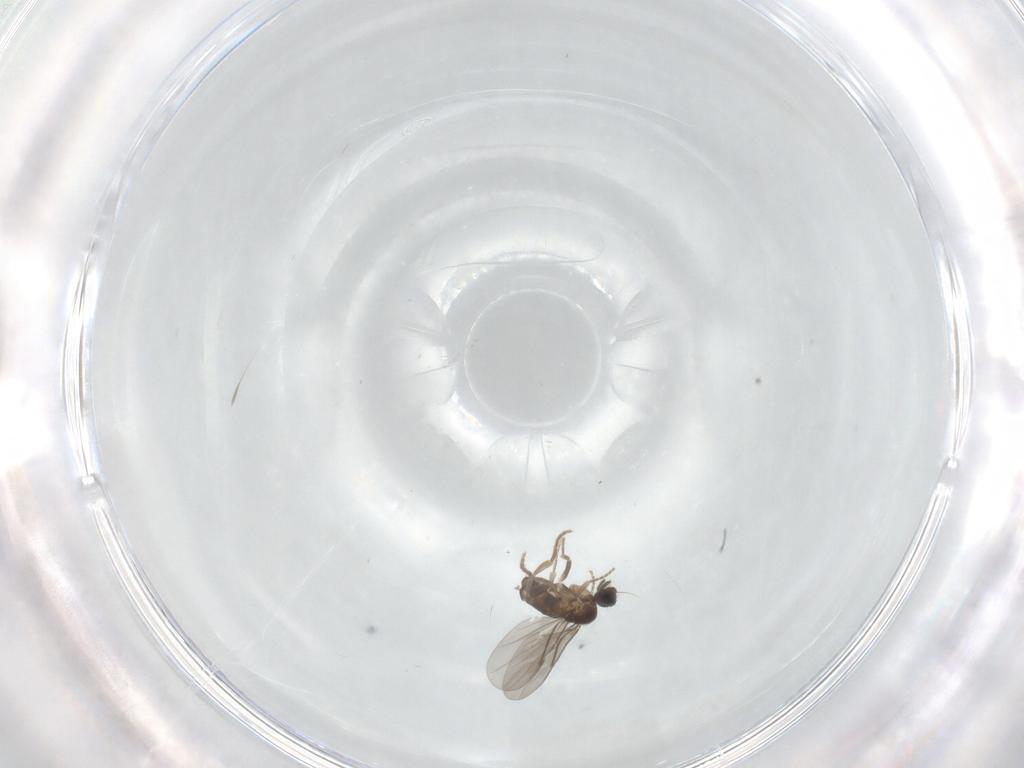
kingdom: Animalia
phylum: Arthropoda
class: Insecta
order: Diptera
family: Cecidomyiidae
